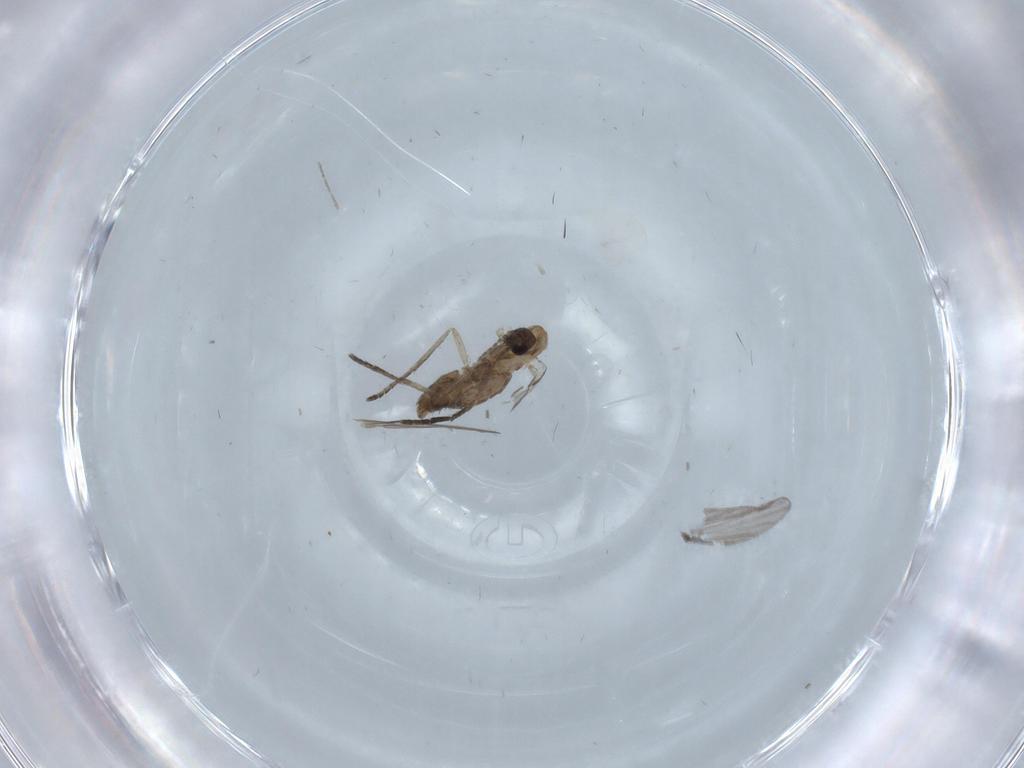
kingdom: Animalia
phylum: Arthropoda
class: Insecta
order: Diptera
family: Cecidomyiidae
